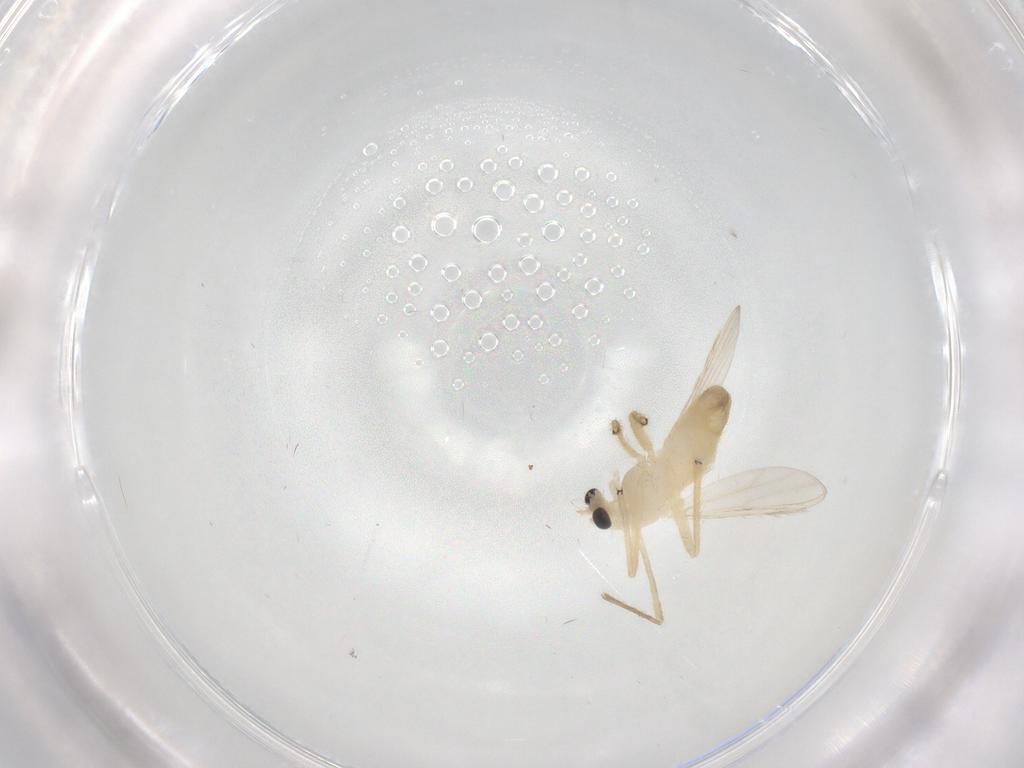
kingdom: Animalia
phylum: Arthropoda
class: Insecta
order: Diptera
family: Chironomidae
